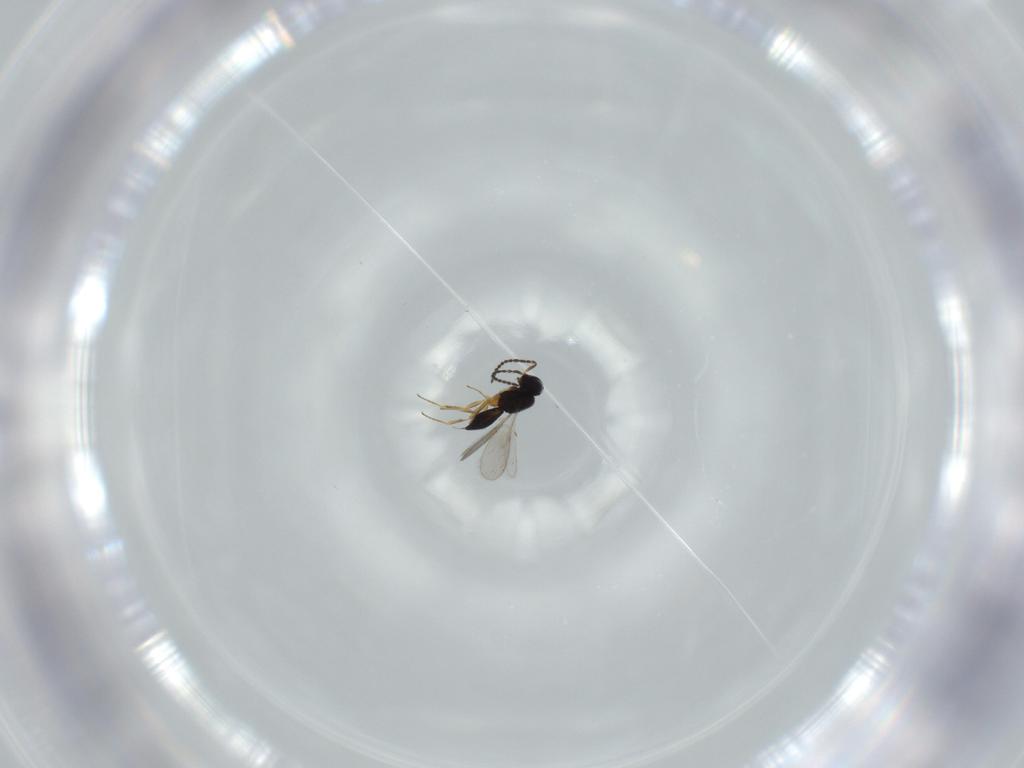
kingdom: Animalia
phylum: Arthropoda
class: Insecta
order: Hymenoptera
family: Scelionidae
